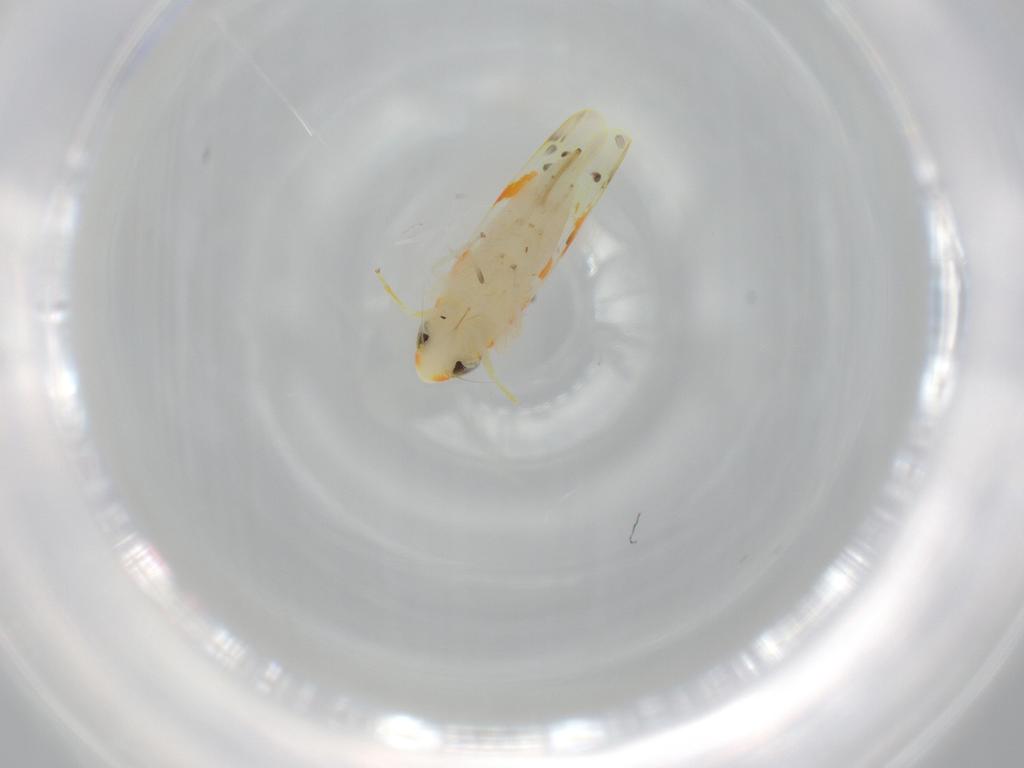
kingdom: Animalia
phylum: Arthropoda
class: Insecta
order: Hemiptera
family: Cicadellidae
